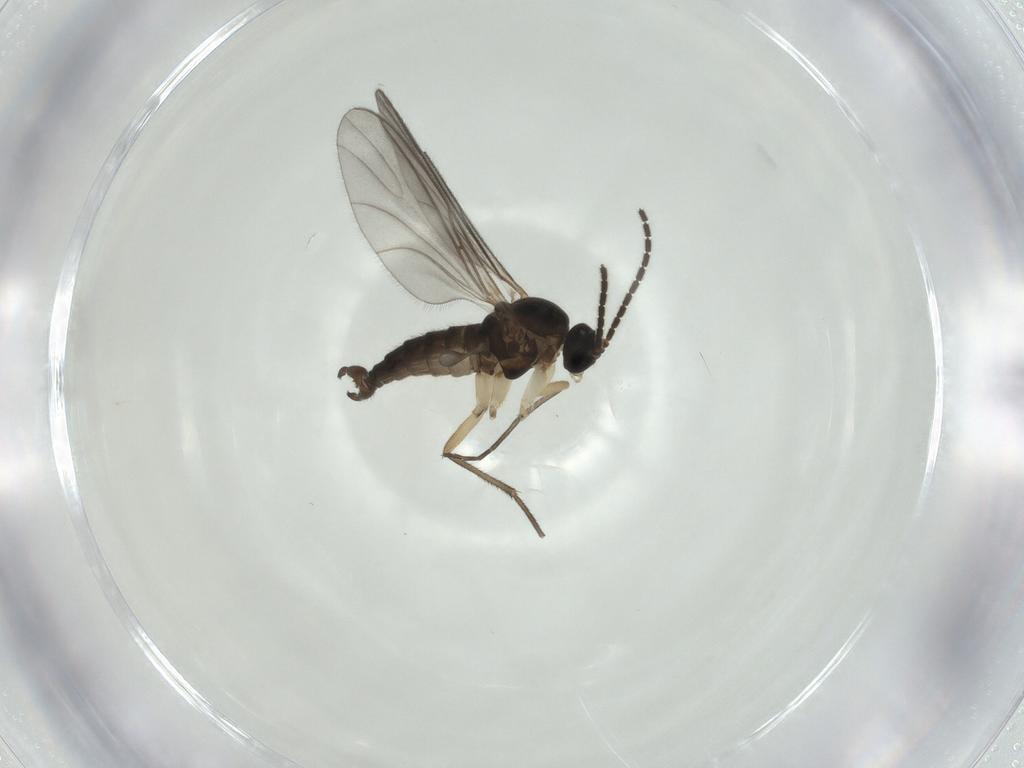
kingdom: Animalia
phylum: Arthropoda
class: Insecta
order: Diptera
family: Sciaridae
